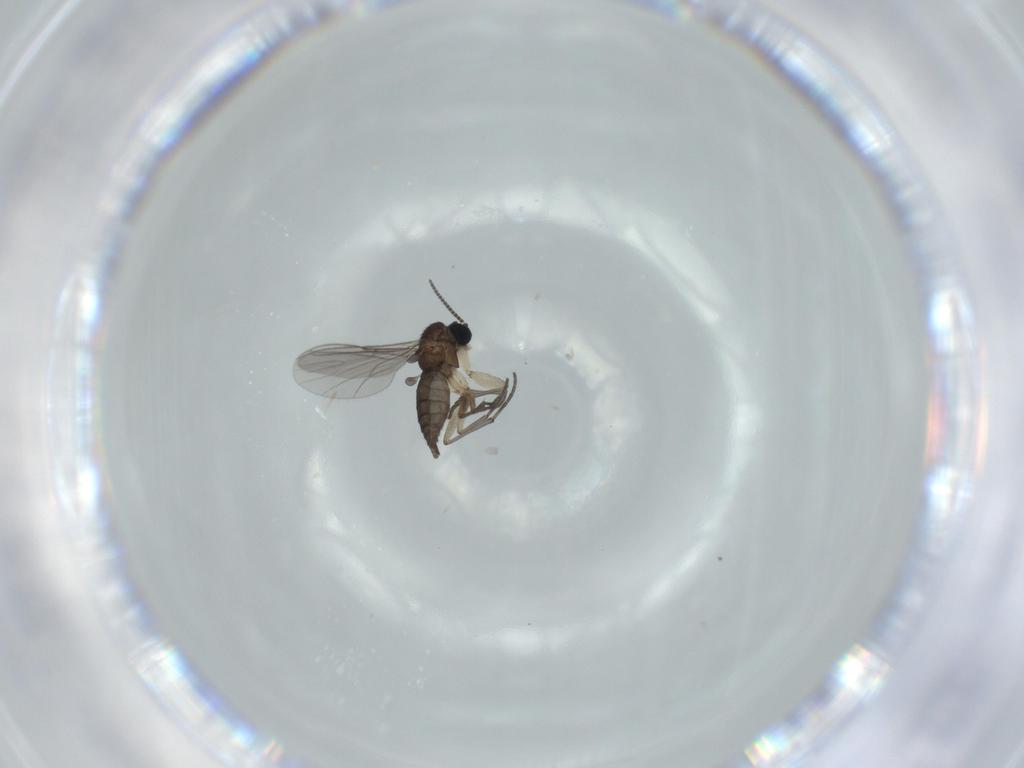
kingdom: Animalia
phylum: Arthropoda
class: Insecta
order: Diptera
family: Sciaridae
